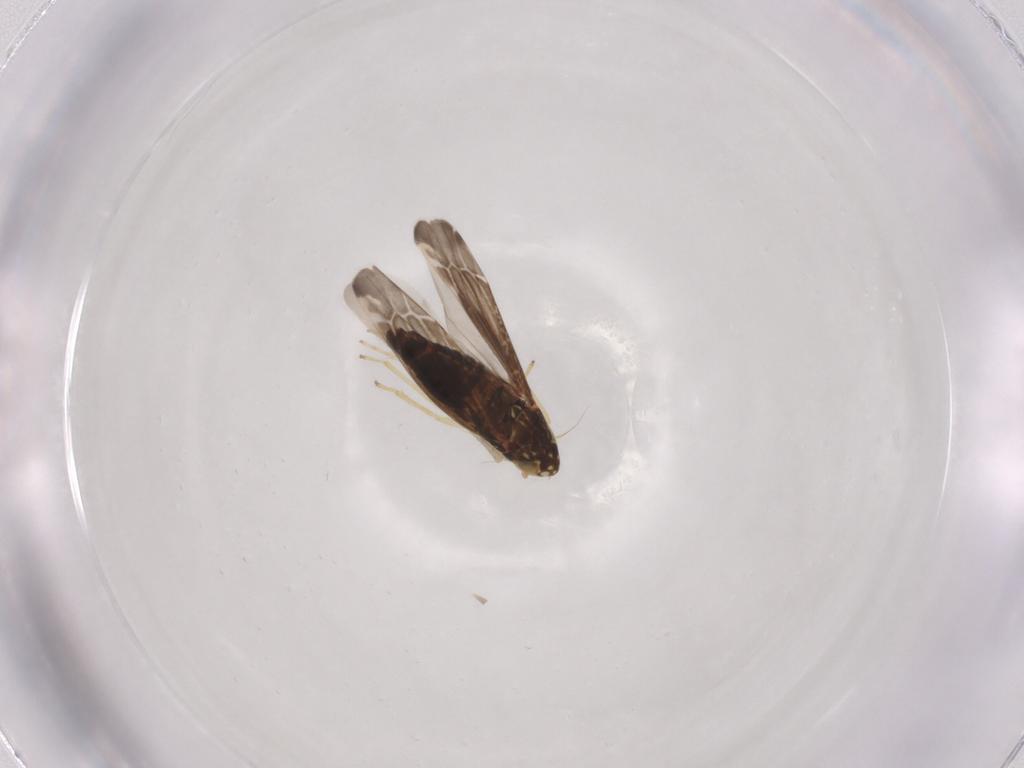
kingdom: Animalia
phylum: Arthropoda
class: Insecta
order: Hemiptera
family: Cicadellidae
